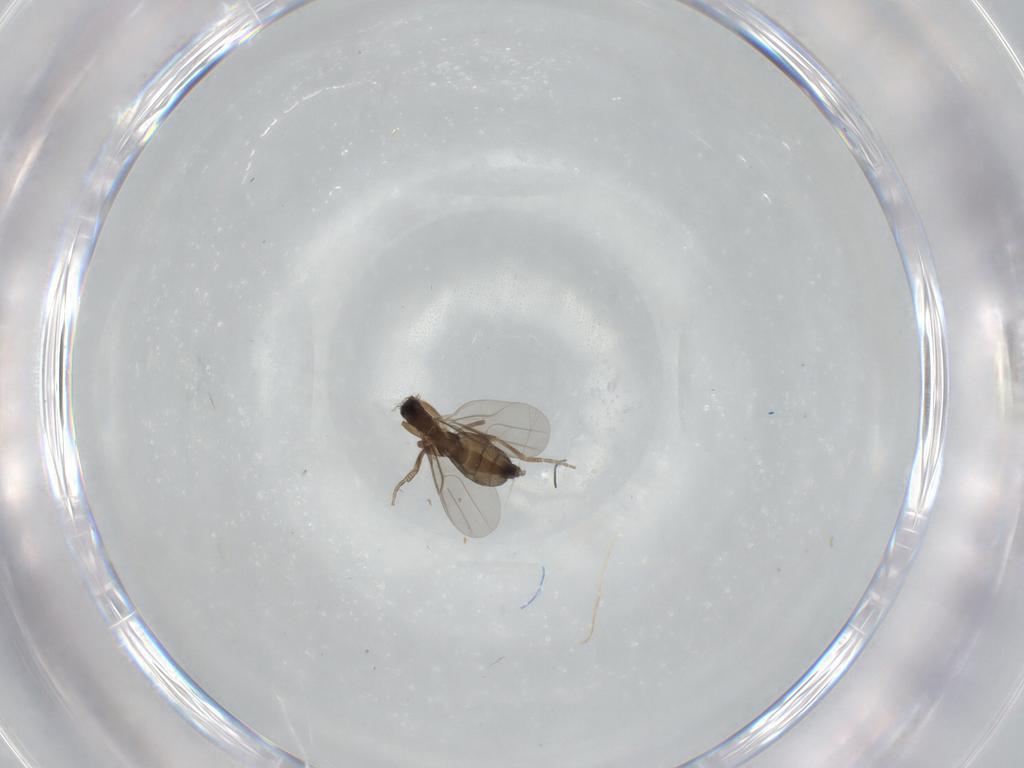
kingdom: Animalia
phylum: Arthropoda
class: Insecta
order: Diptera
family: Phoridae
